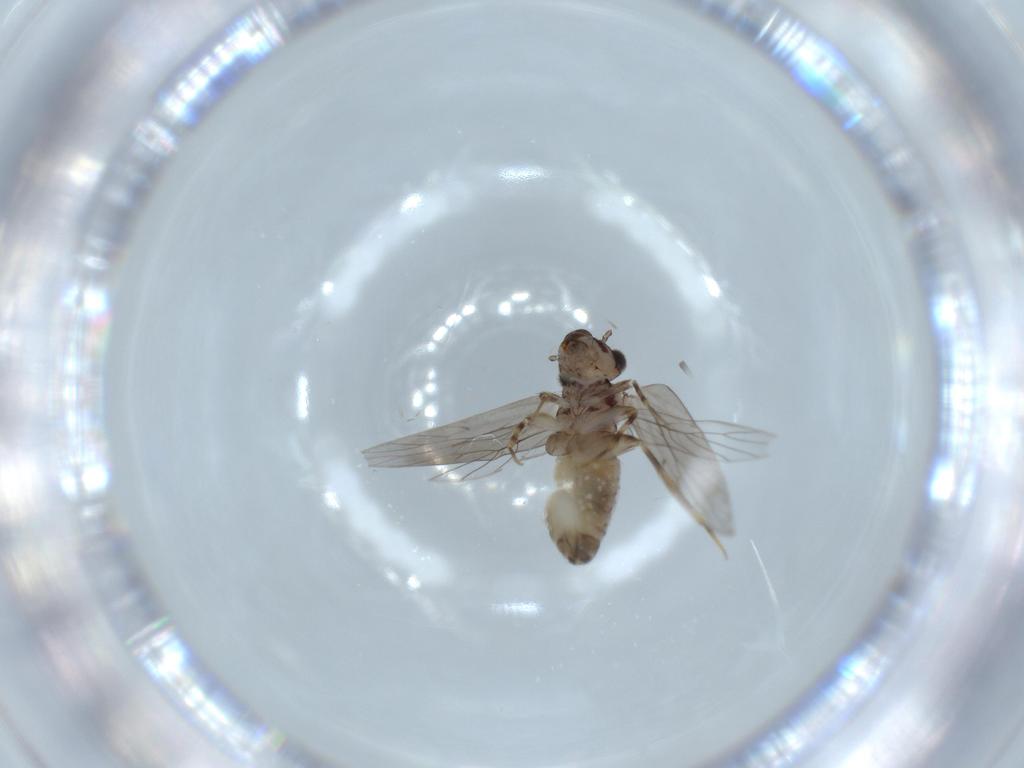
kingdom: Animalia
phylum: Arthropoda
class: Insecta
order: Psocodea
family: Lepidopsocidae
